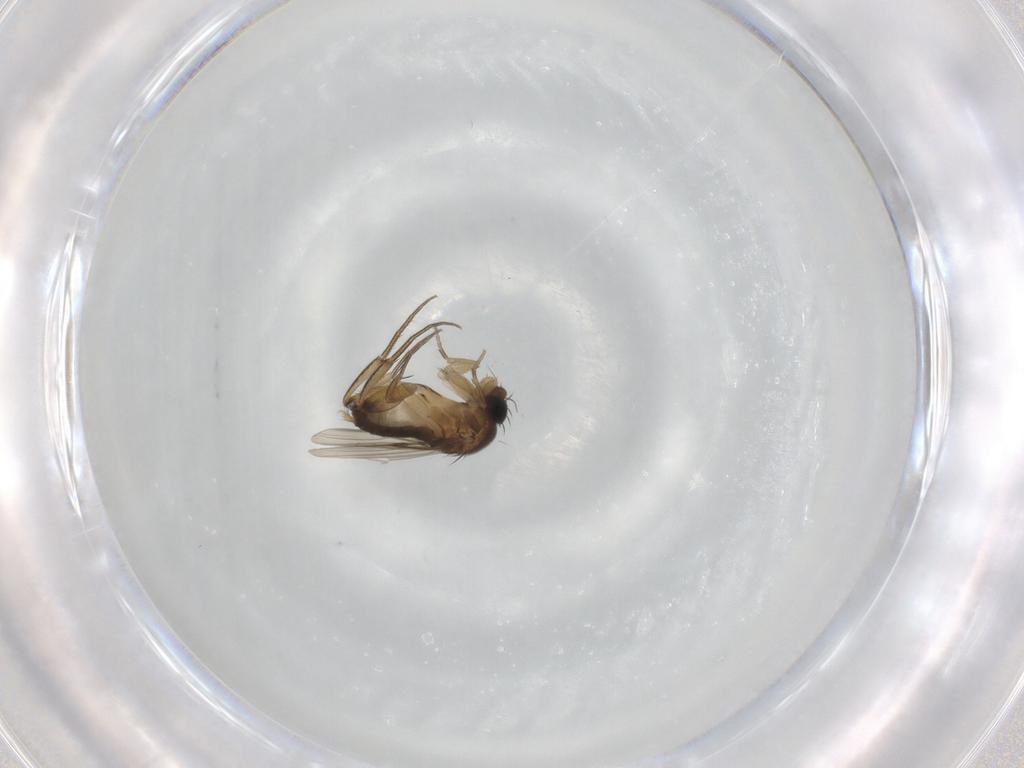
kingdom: Animalia
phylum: Arthropoda
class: Insecta
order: Diptera
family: Phoridae
